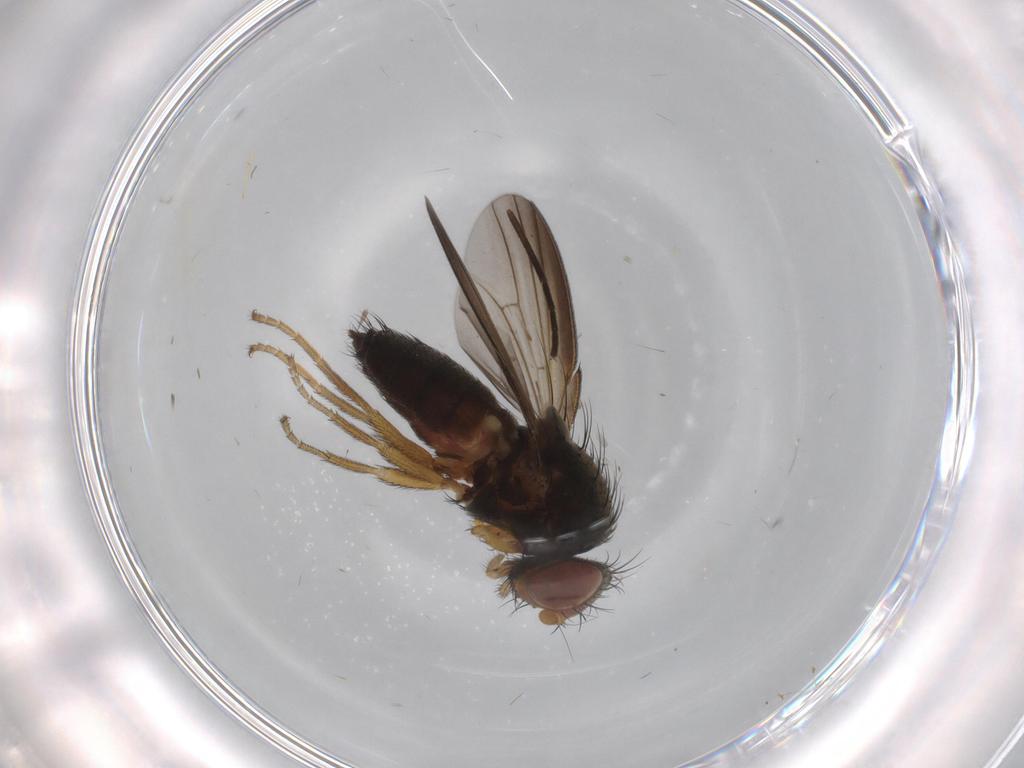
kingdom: Animalia
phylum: Arthropoda
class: Insecta
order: Diptera
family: Milichiidae
